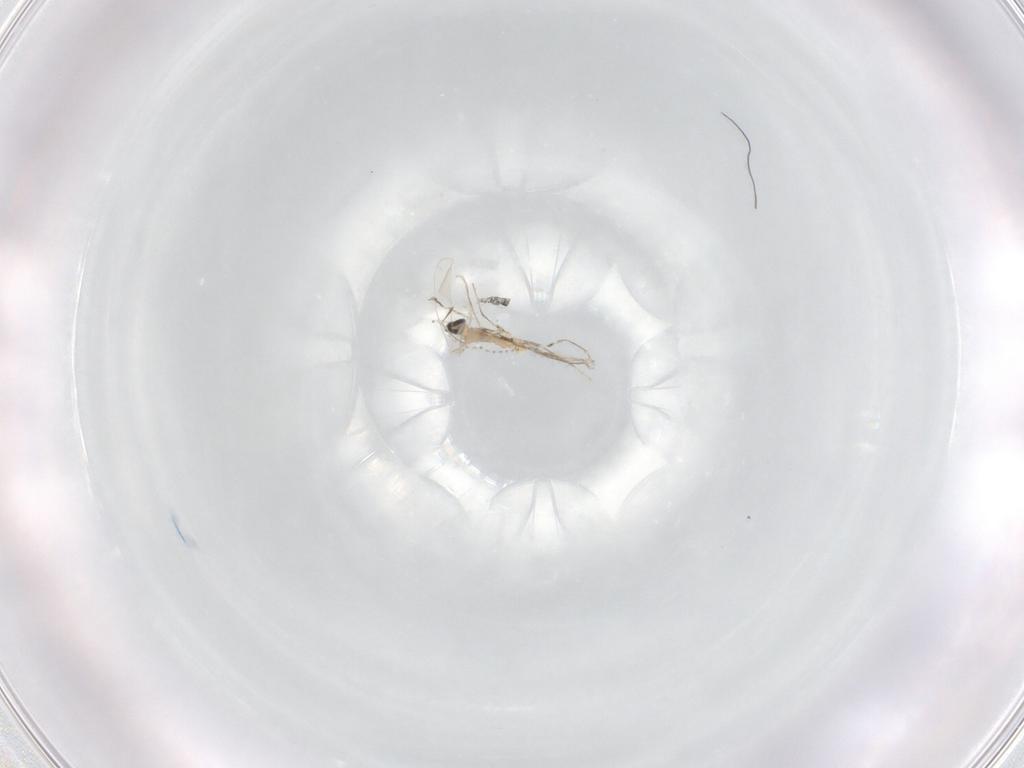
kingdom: Animalia
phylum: Arthropoda
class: Insecta
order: Diptera
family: Cecidomyiidae
